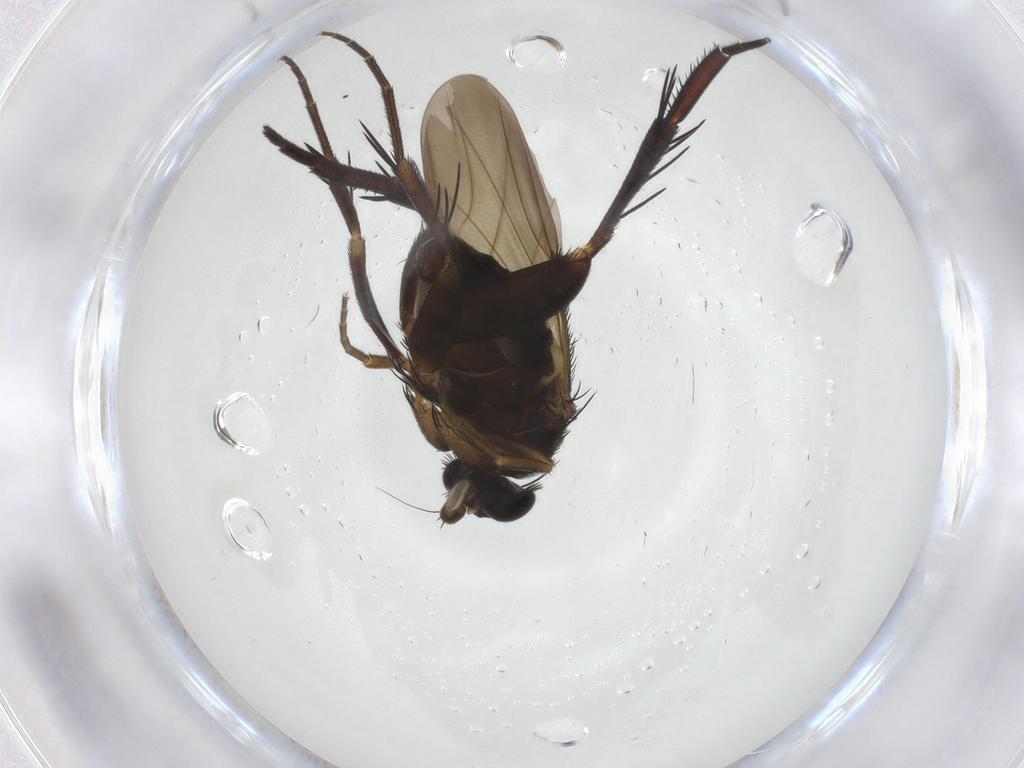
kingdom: Animalia
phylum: Arthropoda
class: Insecta
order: Diptera
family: Phoridae
